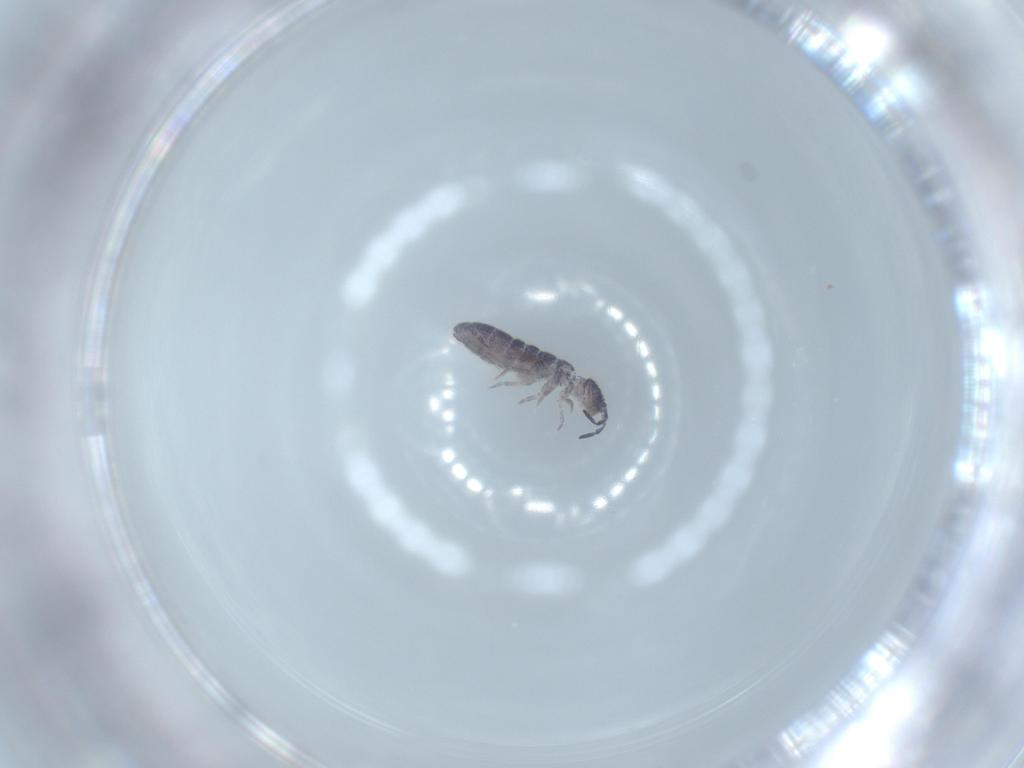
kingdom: Animalia
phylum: Arthropoda
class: Collembola
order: Entomobryomorpha
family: Isotomidae
